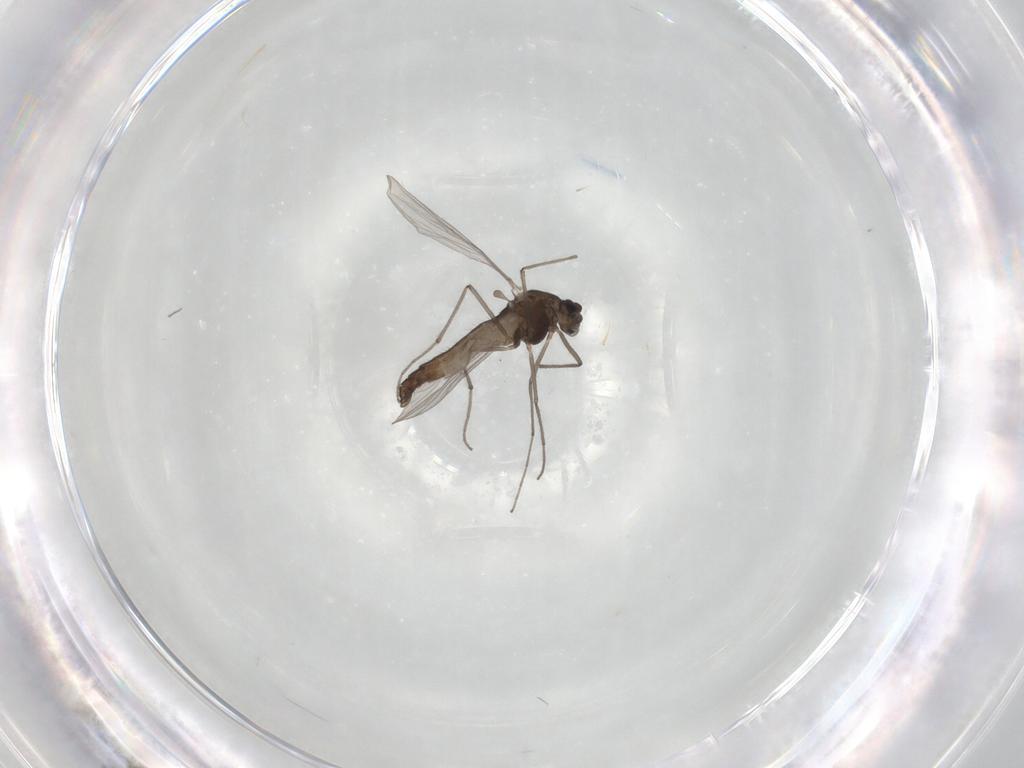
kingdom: Animalia
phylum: Arthropoda
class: Insecta
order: Diptera
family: Chironomidae
